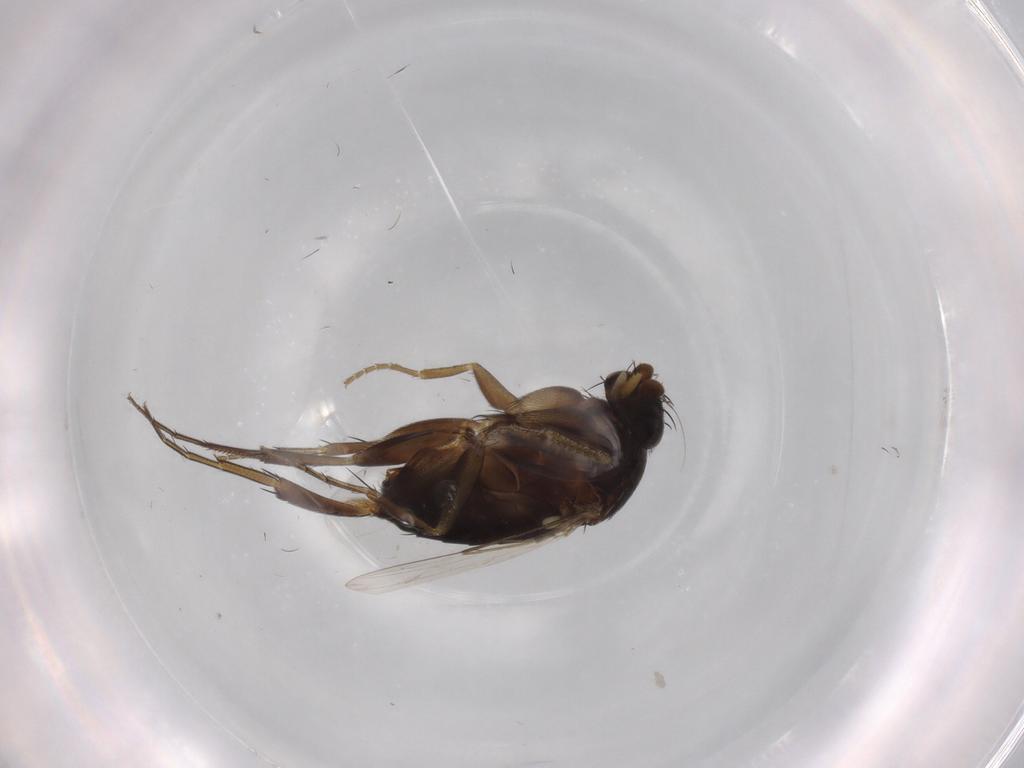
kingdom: Animalia
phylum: Arthropoda
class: Insecta
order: Diptera
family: Phoridae
